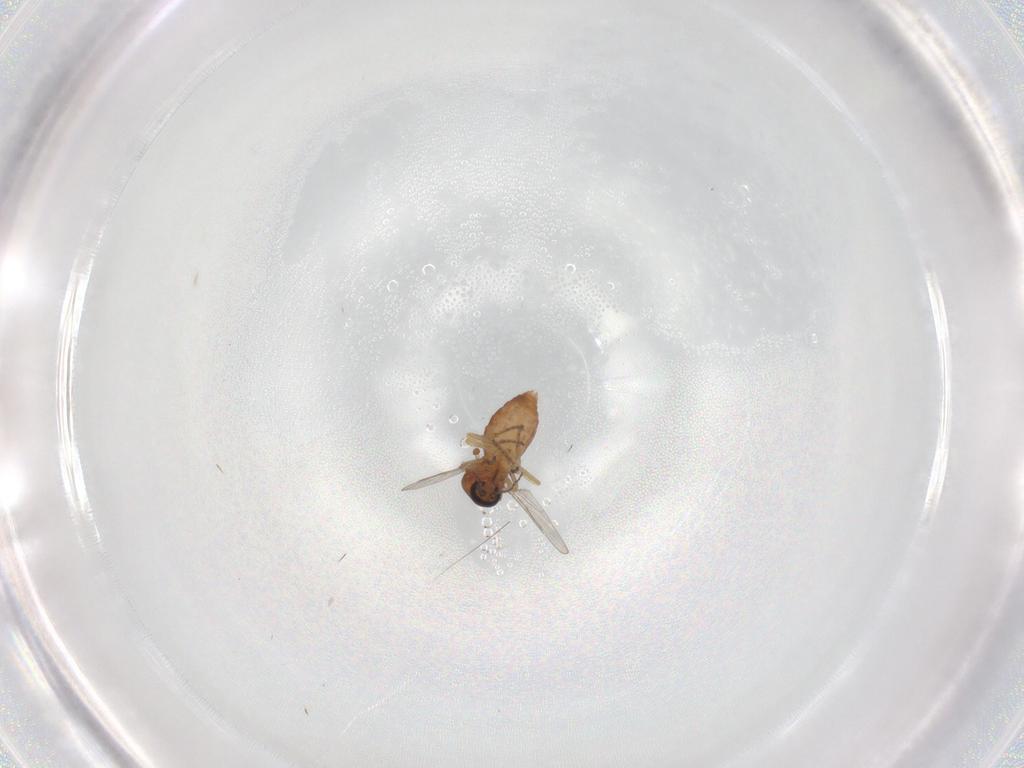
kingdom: Animalia
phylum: Arthropoda
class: Insecta
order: Diptera
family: Ceratopogonidae
